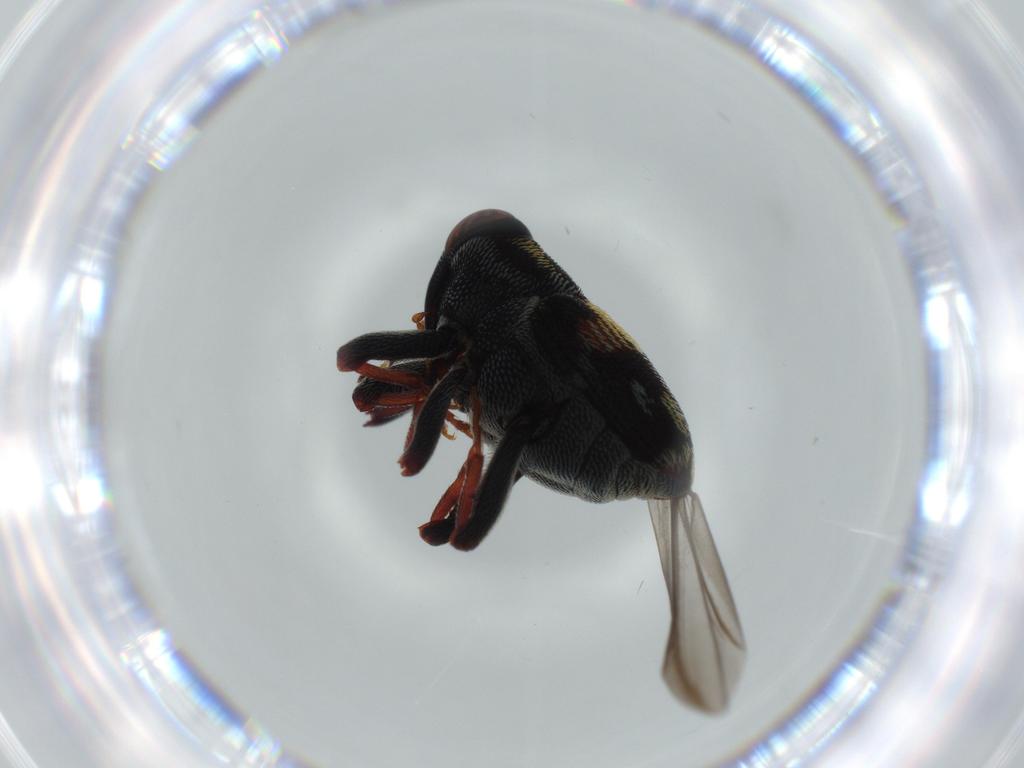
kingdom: Animalia
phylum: Arthropoda
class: Insecta
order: Coleoptera
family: Curculionidae
